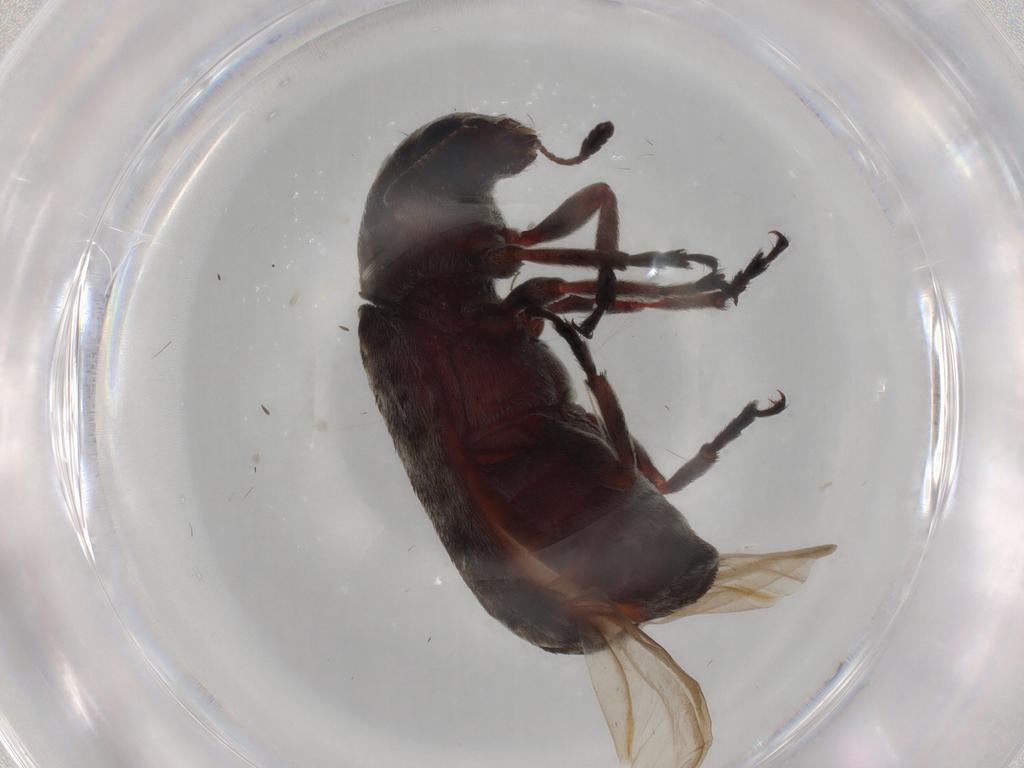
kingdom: Animalia
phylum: Arthropoda
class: Insecta
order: Coleoptera
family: Anthribidae
